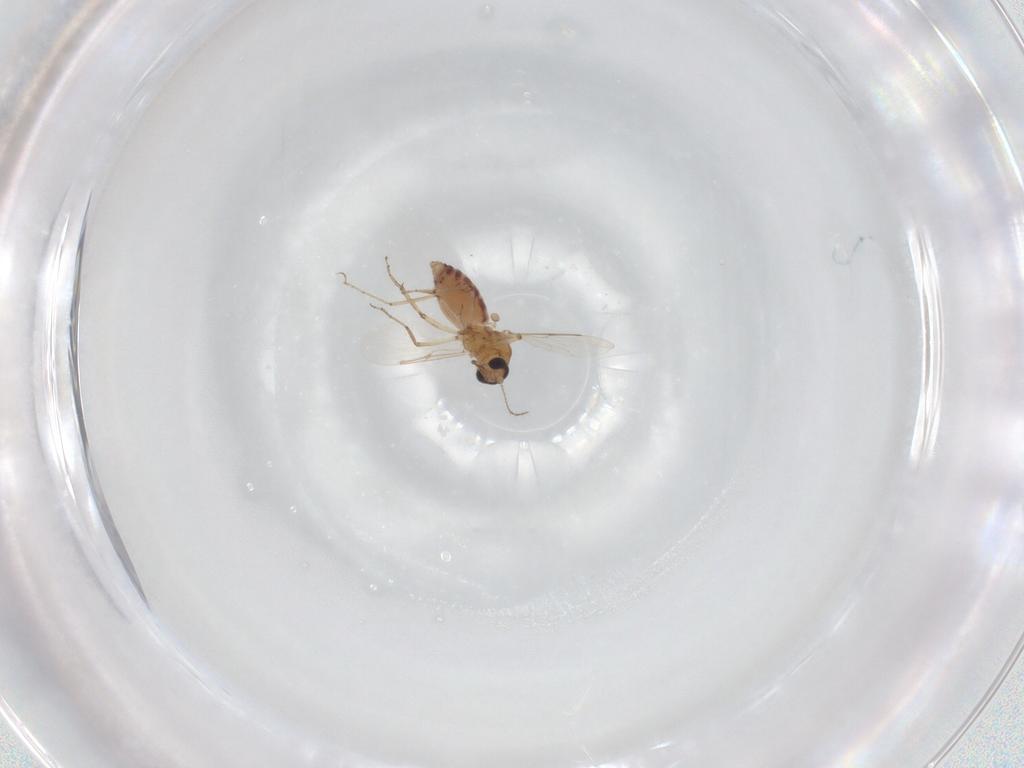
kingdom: Animalia
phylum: Arthropoda
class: Insecta
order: Diptera
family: Ceratopogonidae
